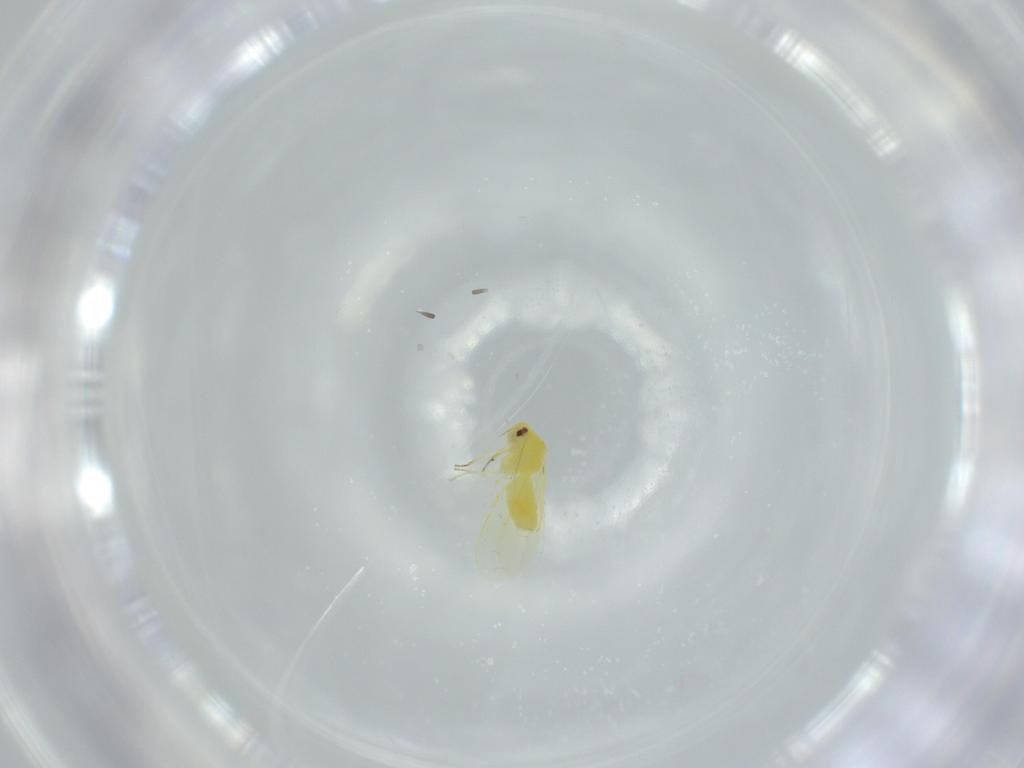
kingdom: Animalia
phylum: Arthropoda
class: Insecta
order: Hemiptera
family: Aleyrodidae
